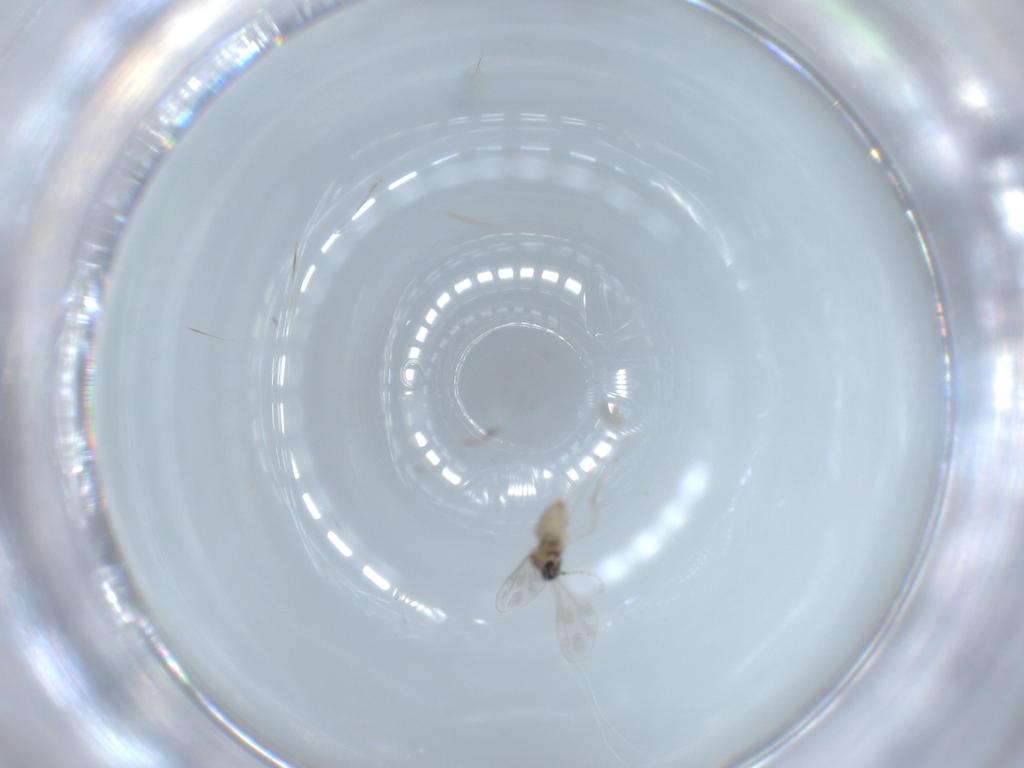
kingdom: Animalia
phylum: Arthropoda
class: Insecta
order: Diptera
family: Cecidomyiidae
